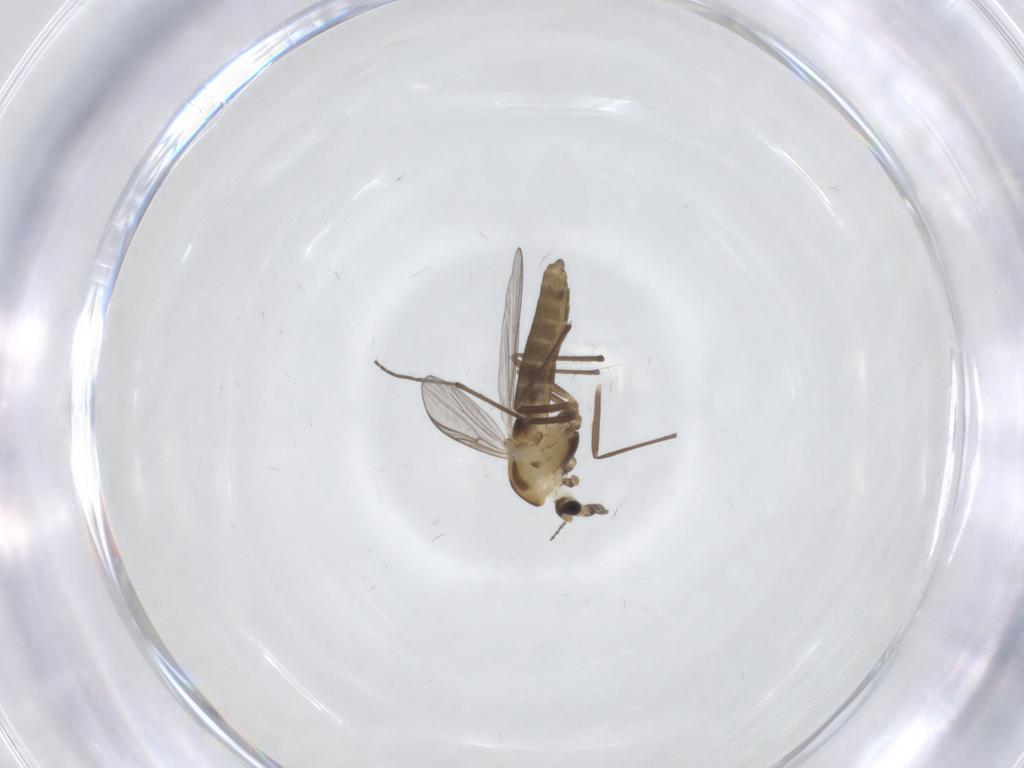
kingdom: Animalia
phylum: Arthropoda
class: Insecta
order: Diptera
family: Chironomidae
